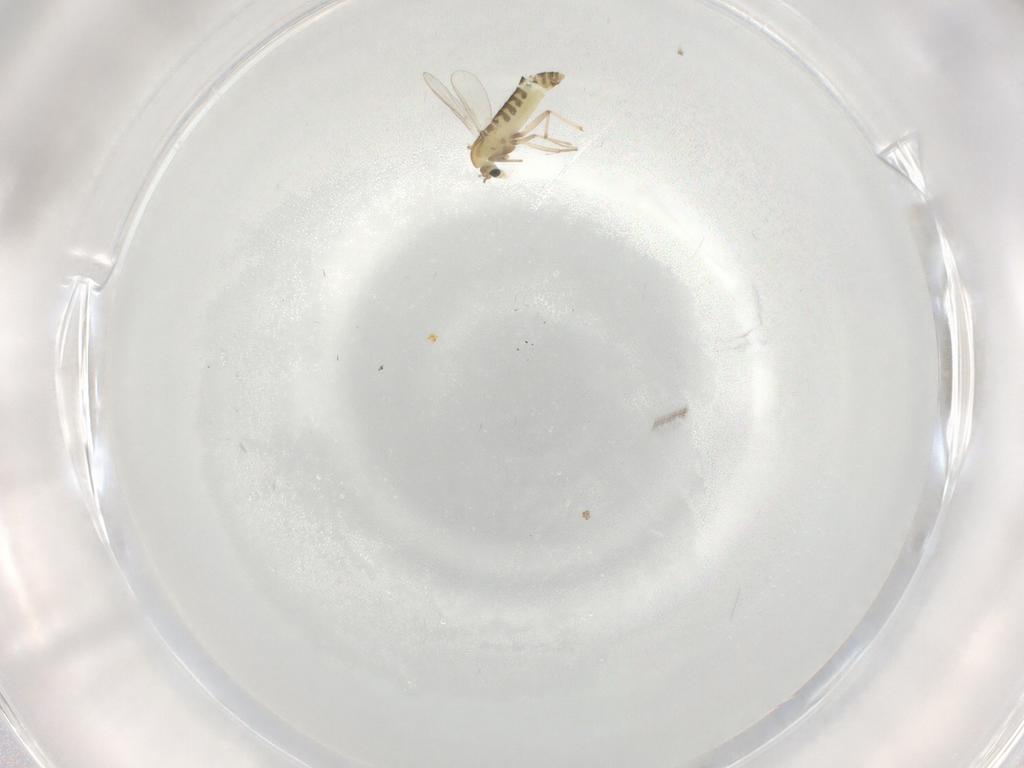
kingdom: Animalia
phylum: Arthropoda
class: Insecta
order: Diptera
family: Chironomidae
